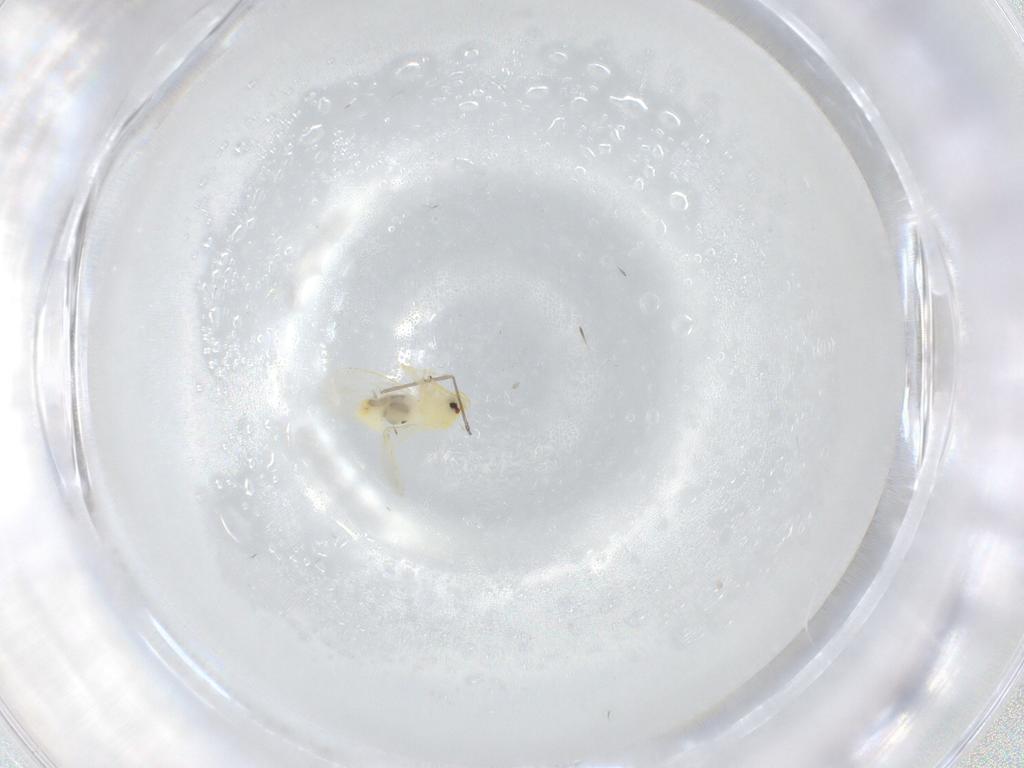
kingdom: Animalia
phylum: Arthropoda
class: Insecta
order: Hemiptera
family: Aleyrodidae
